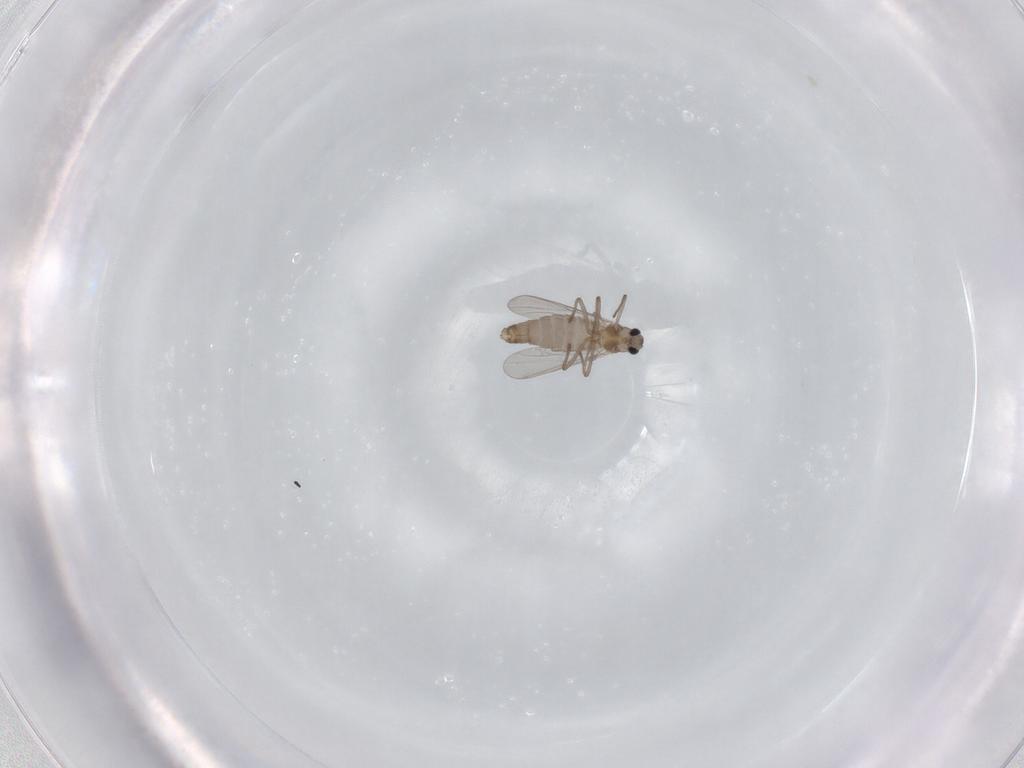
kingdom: Animalia
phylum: Arthropoda
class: Insecta
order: Diptera
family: Chironomidae
